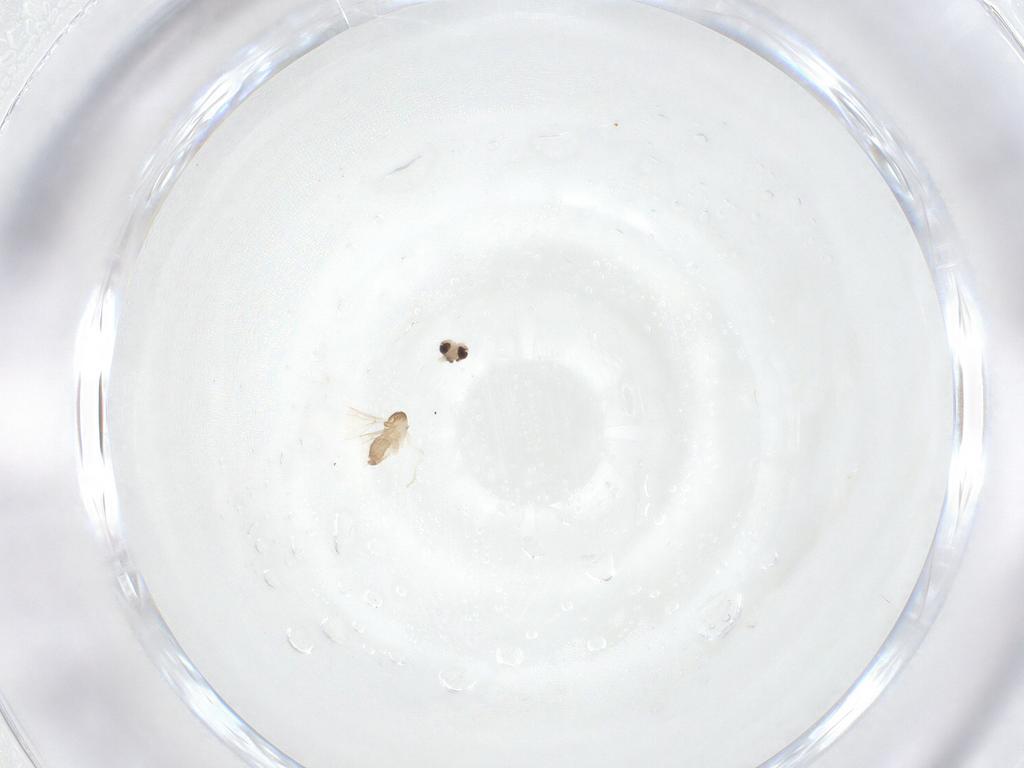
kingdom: Animalia
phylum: Arthropoda
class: Insecta
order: Diptera
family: Cecidomyiidae
